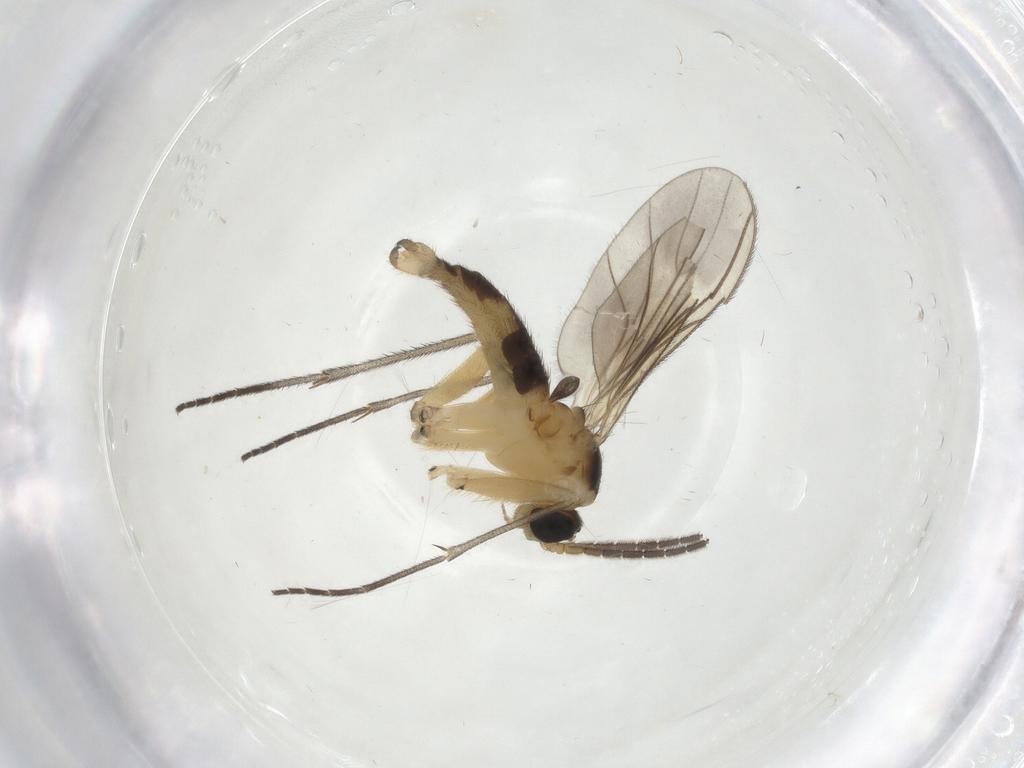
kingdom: Animalia
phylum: Arthropoda
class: Insecta
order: Diptera
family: Sciaridae
